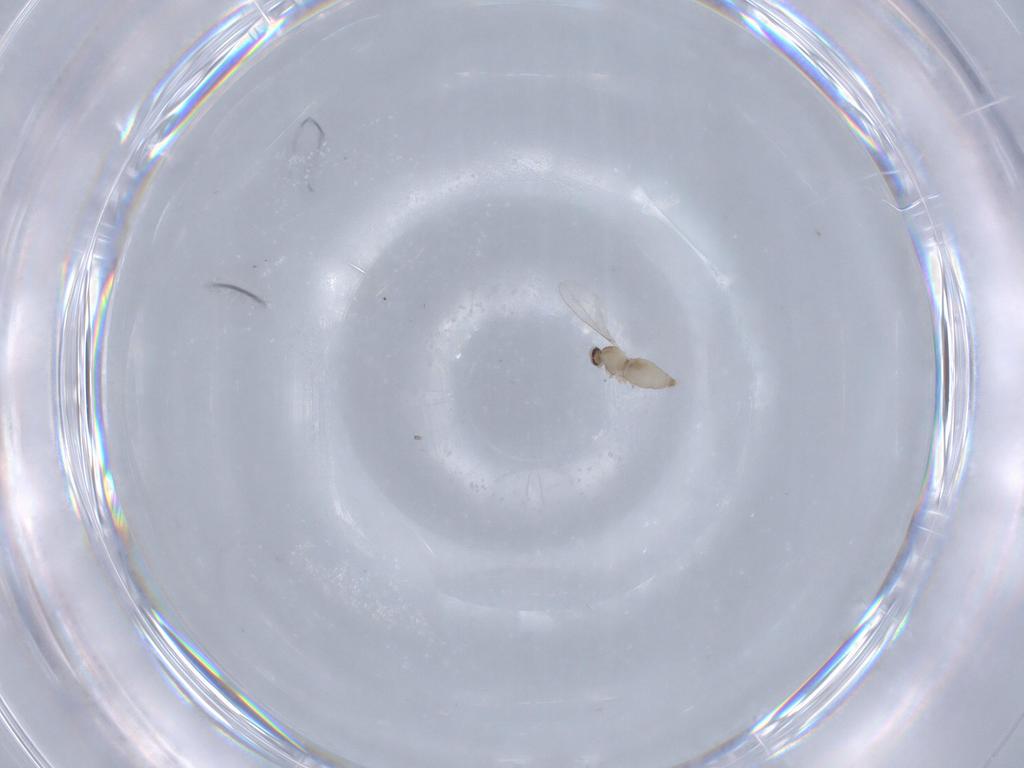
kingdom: Animalia
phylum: Arthropoda
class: Insecta
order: Diptera
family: Cecidomyiidae
